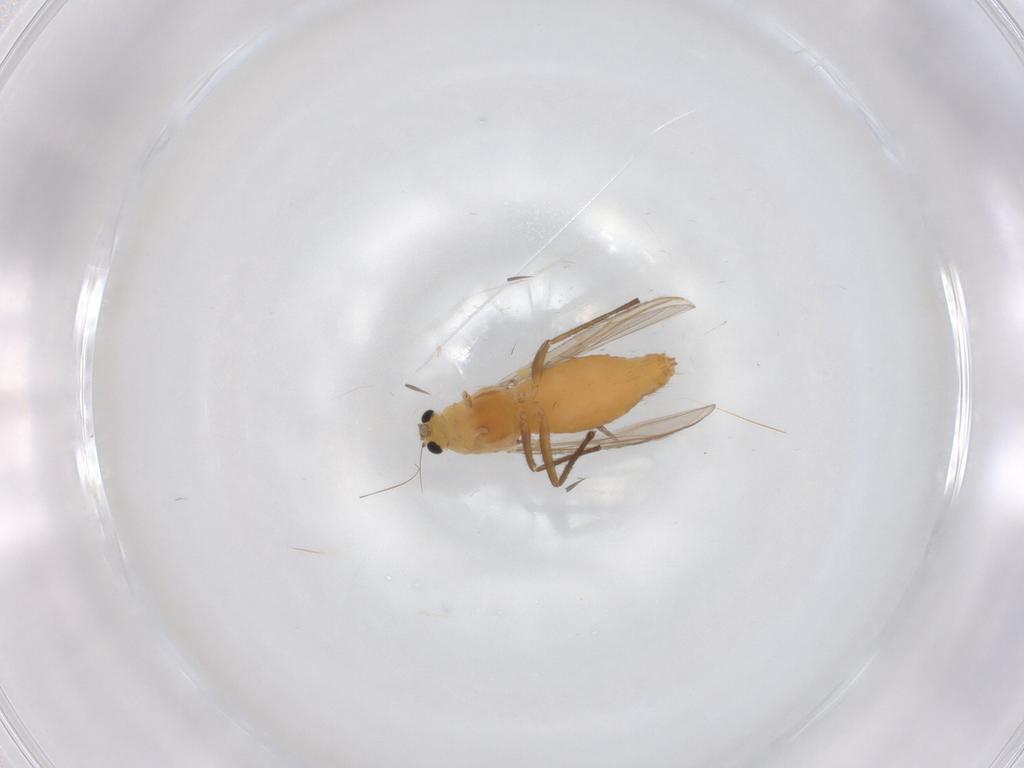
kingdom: Animalia
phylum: Arthropoda
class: Insecta
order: Diptera
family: Chironomidae
